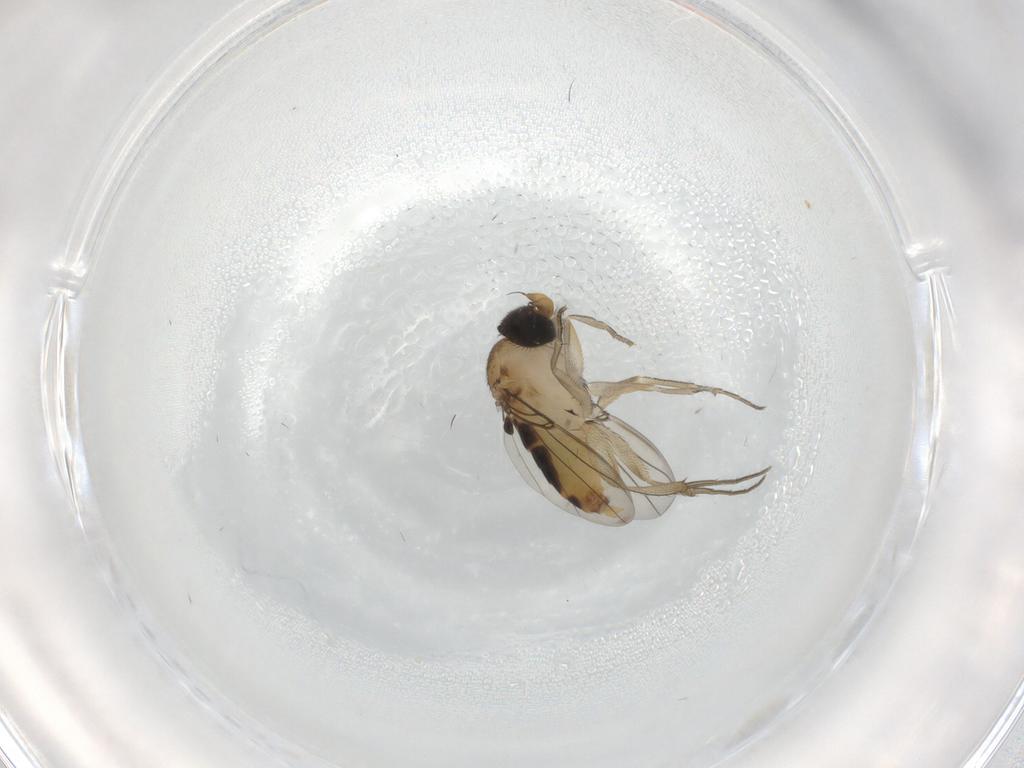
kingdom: Animalia
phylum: Arthropoda
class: Insecta
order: Diptera
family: Phoridae
